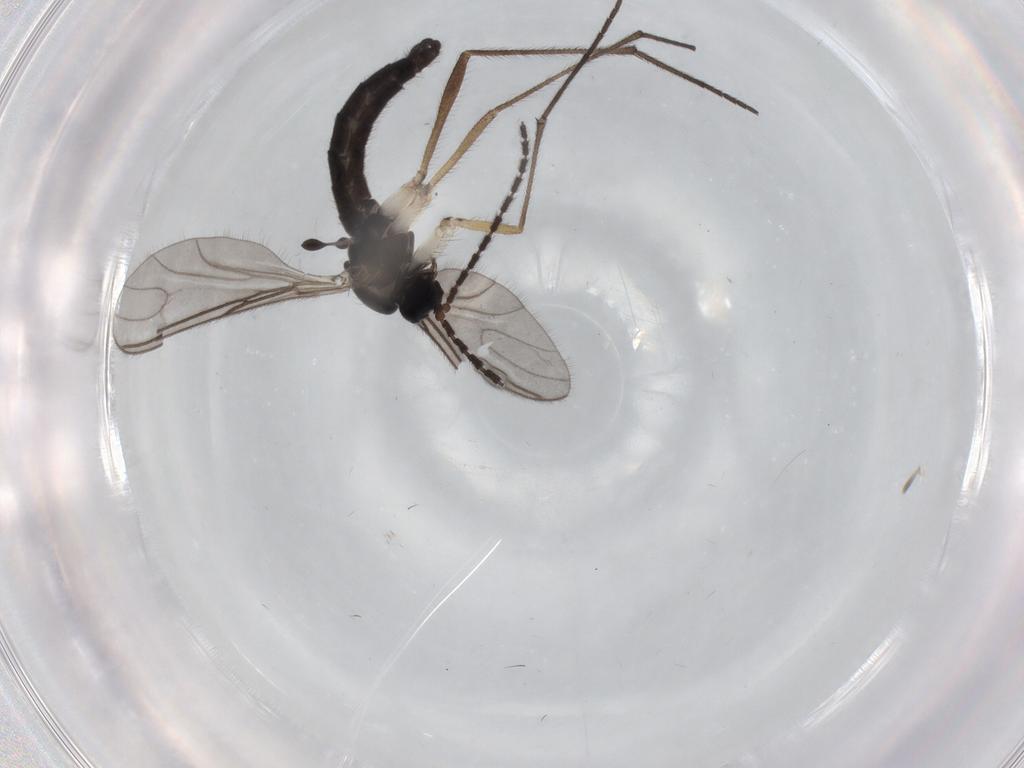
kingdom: Animalia
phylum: Arthropoda
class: Insecta
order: Diptera
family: Sciaridae
